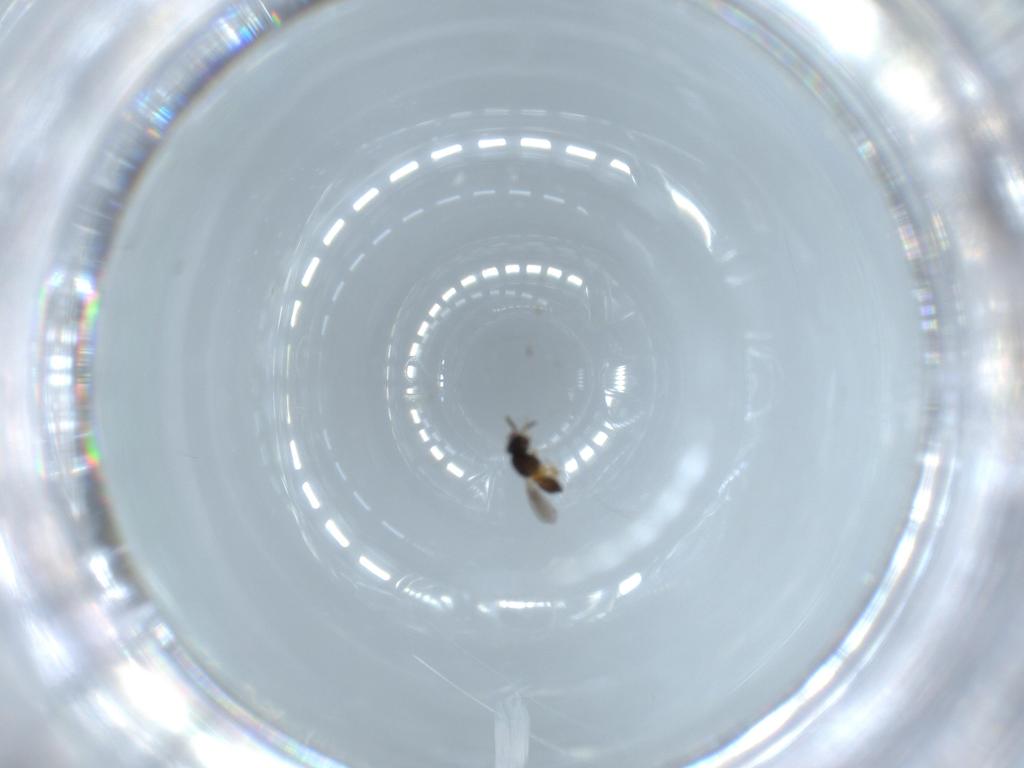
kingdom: Animalia
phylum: Arthropoda
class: Insecta
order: Hymenoptera
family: Platygastridae
